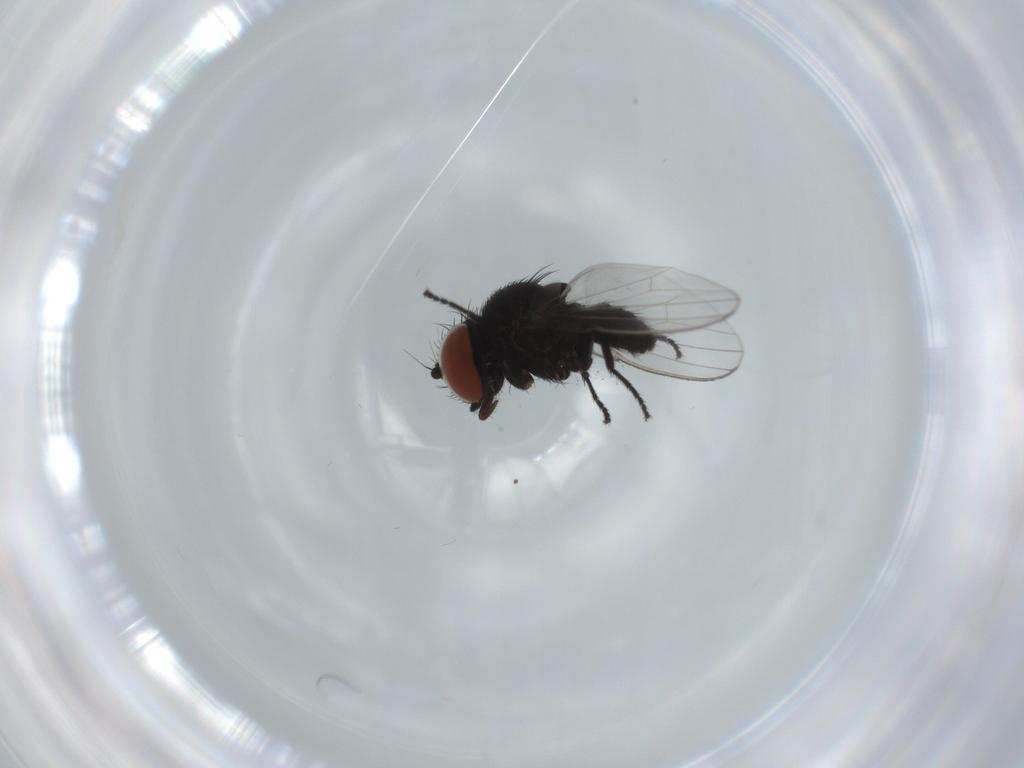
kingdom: Animalia
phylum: Arthropoda
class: Insecta
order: Diptera
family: Milichiidae
